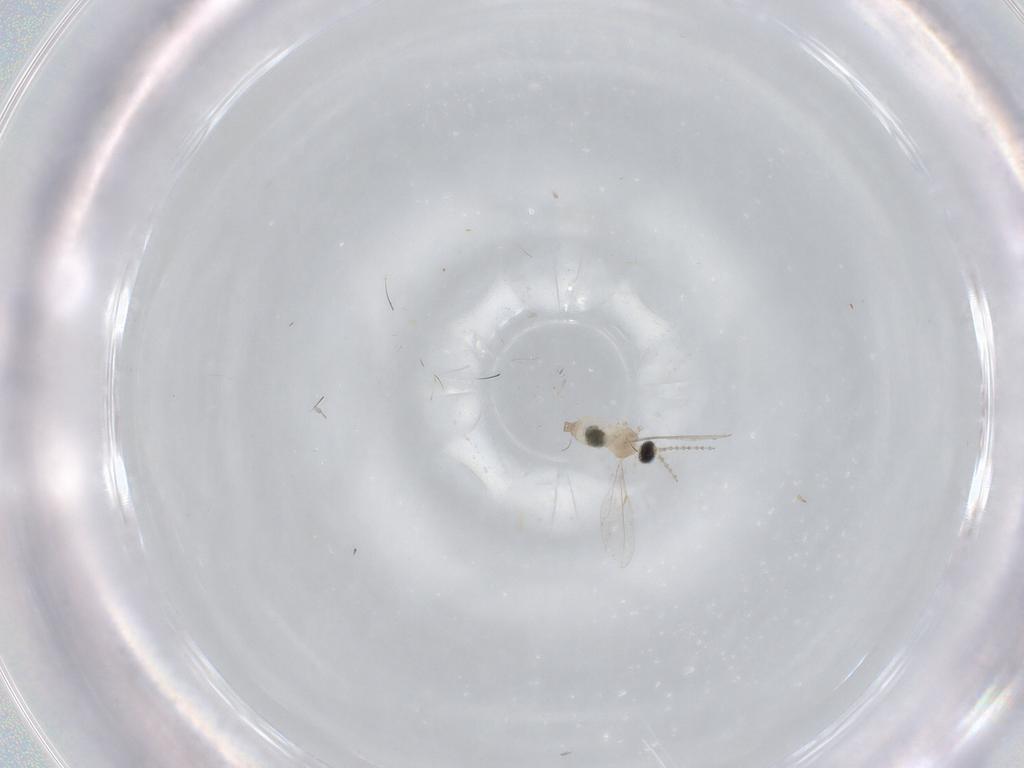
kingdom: Animalia
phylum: Arthropoda
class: Insecta
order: Diptera
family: Cecidomyiidae
